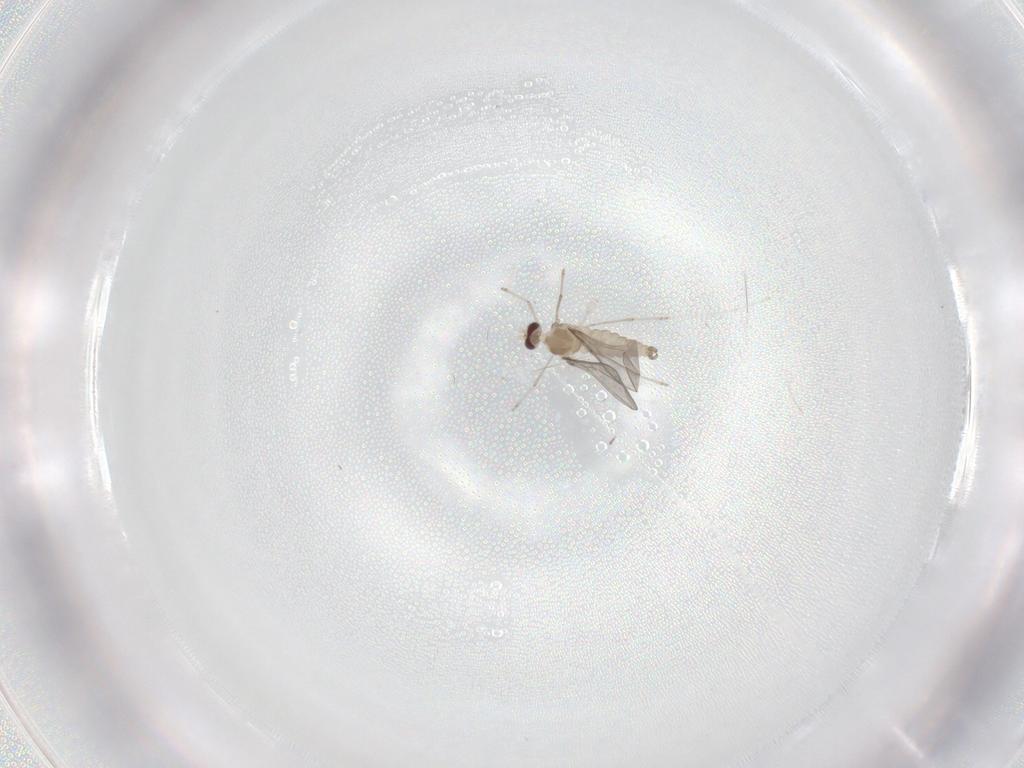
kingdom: Animalia
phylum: Arthropoda
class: Insecta
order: Diptera
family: Cecidomyiidae
